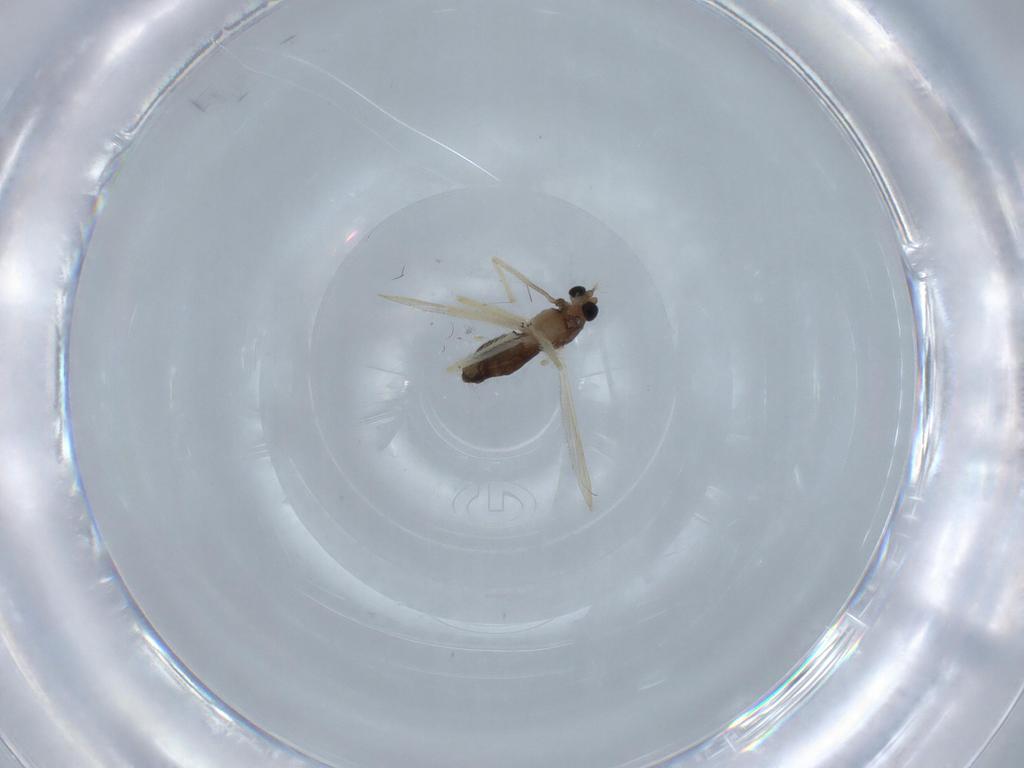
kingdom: Animalia
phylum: Arthropoda
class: Insecta
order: Diptera
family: Chironomidae
